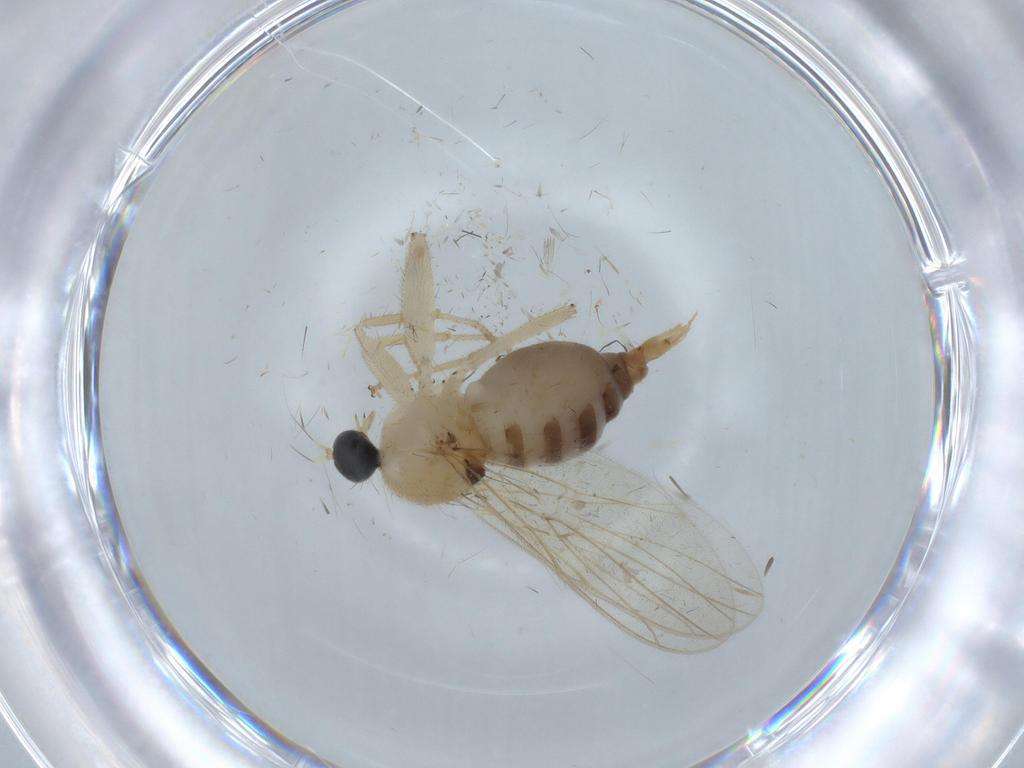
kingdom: Animalia
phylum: Arthropoda
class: Insecta
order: Diptera
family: Hybotidae
